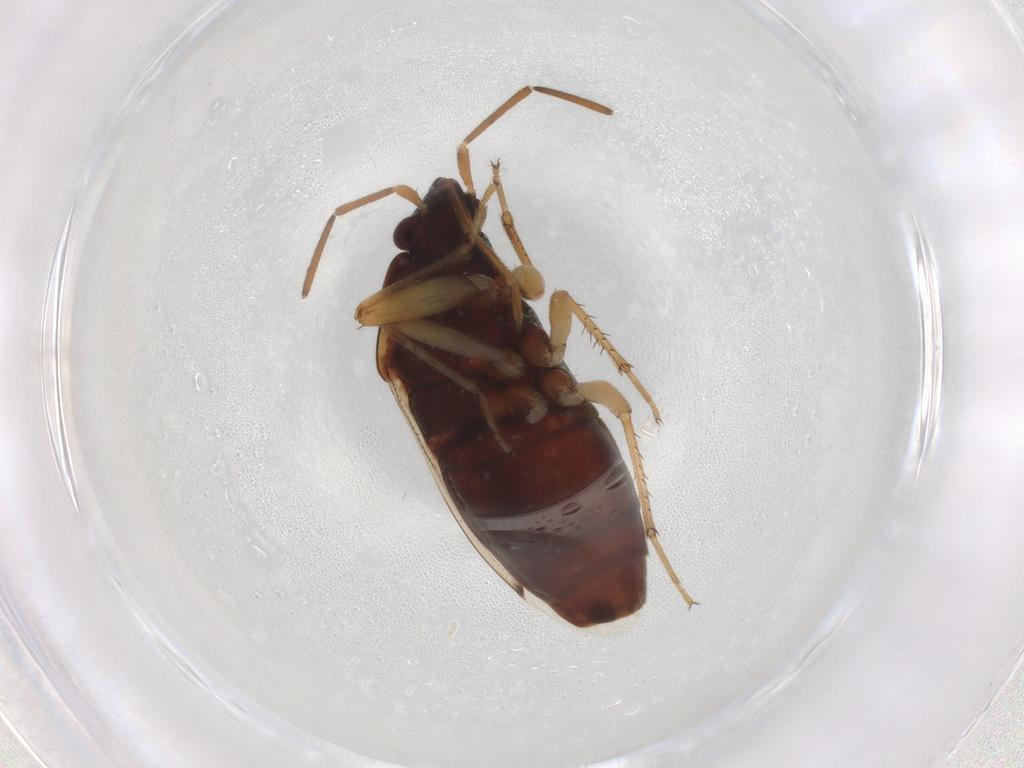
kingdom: Animalia
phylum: Arthropoda
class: Insecta
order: Hemiptera
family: Rhyparochromidae
